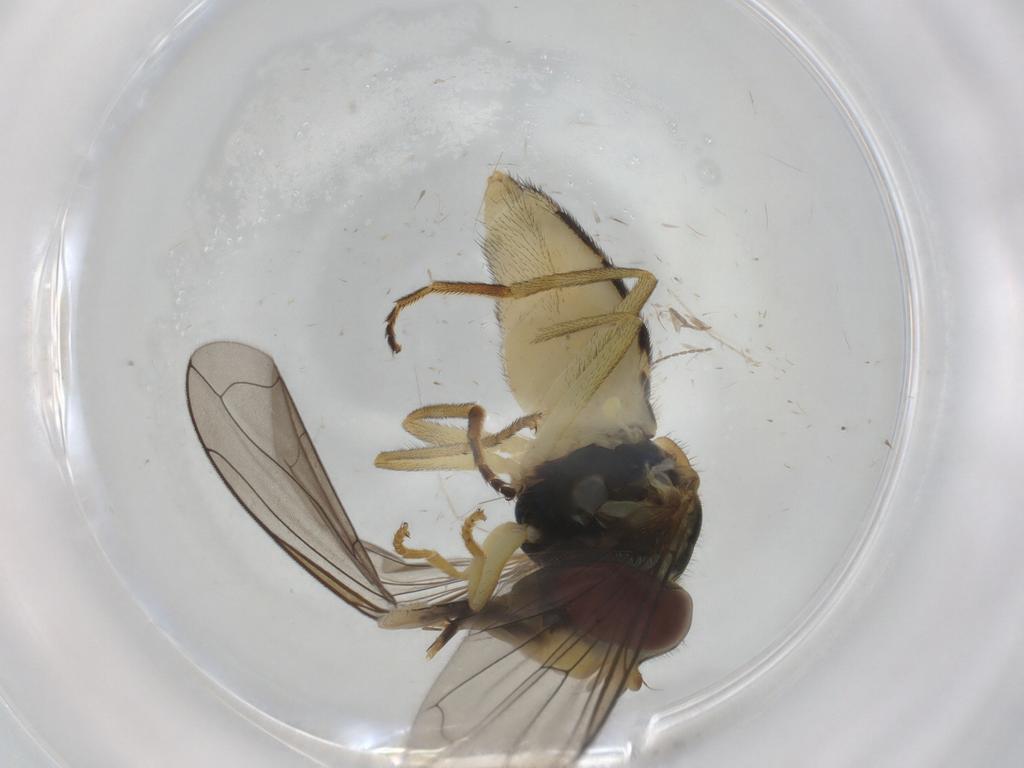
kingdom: Animalia
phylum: Arthropoda
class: Insecta
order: Diptera
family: Syrphidae
